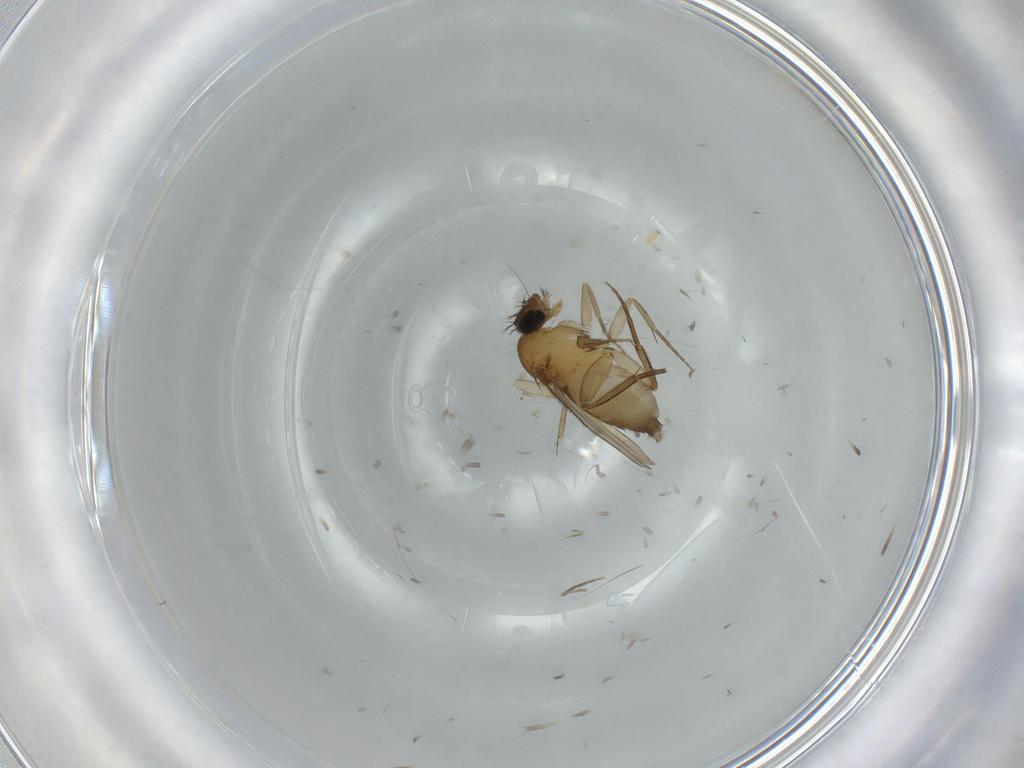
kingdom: Animalia
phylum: Arthropoda
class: Insecta
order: Diptera
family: Phoridae
